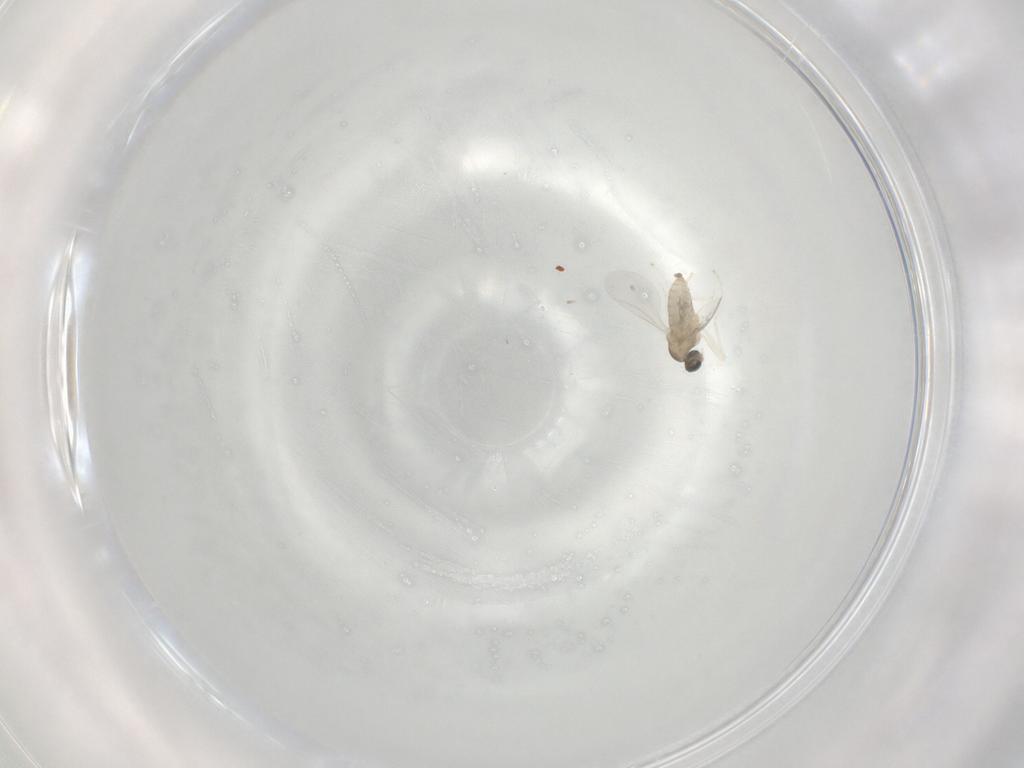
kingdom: Animalia
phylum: Arthropoda
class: Insecta
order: Diptera
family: Cecidomyiidae
